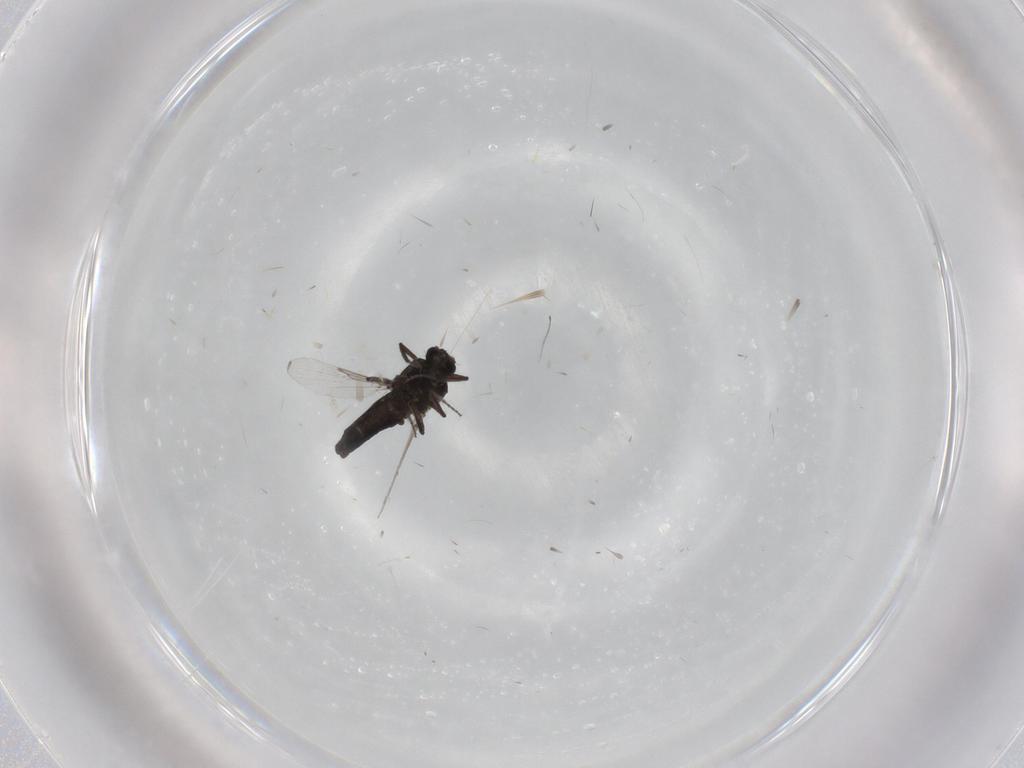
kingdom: Animalia
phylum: Arthropoda
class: Insecta
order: Diptera
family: Ceratopogonidae
